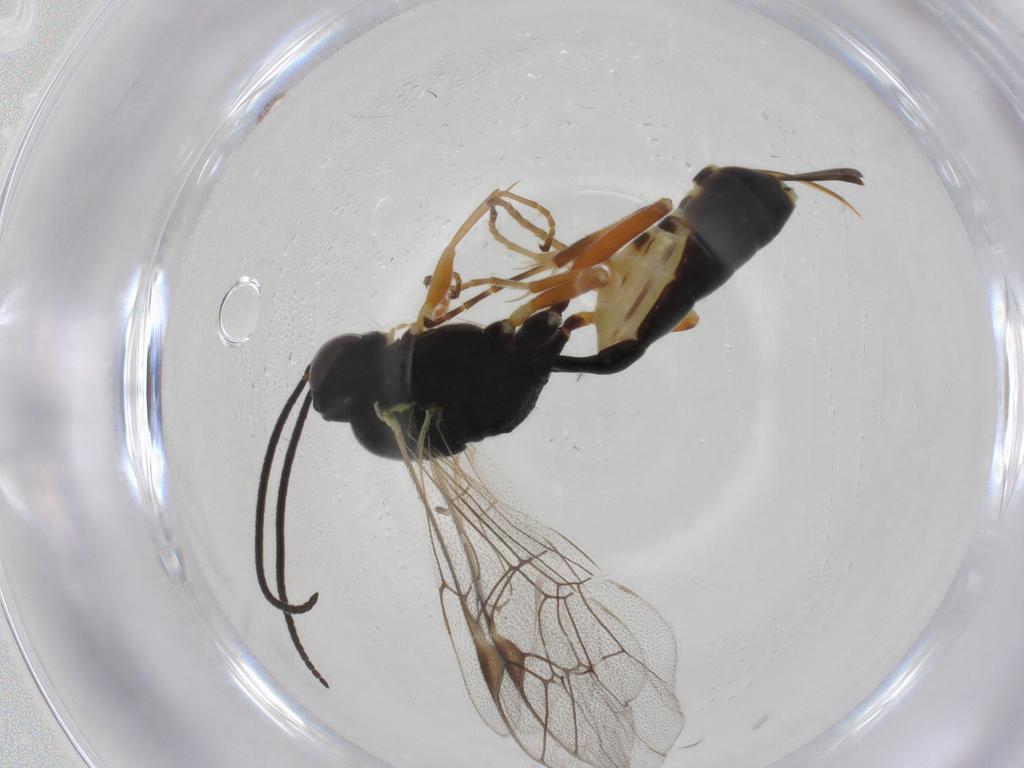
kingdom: Animalia
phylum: Arthropoda
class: Insecta
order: Hymenoptera
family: Ichneumonidae
